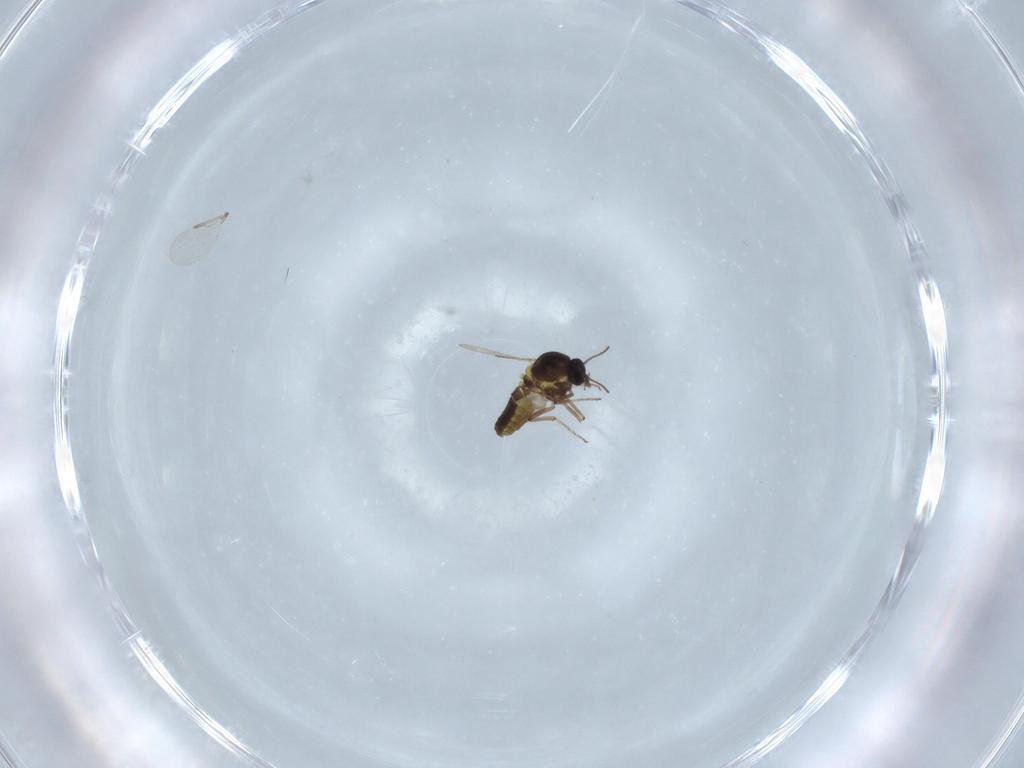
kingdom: Animalia
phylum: Arthropoda
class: Insecta
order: Diptera
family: Ceratopogonidae
